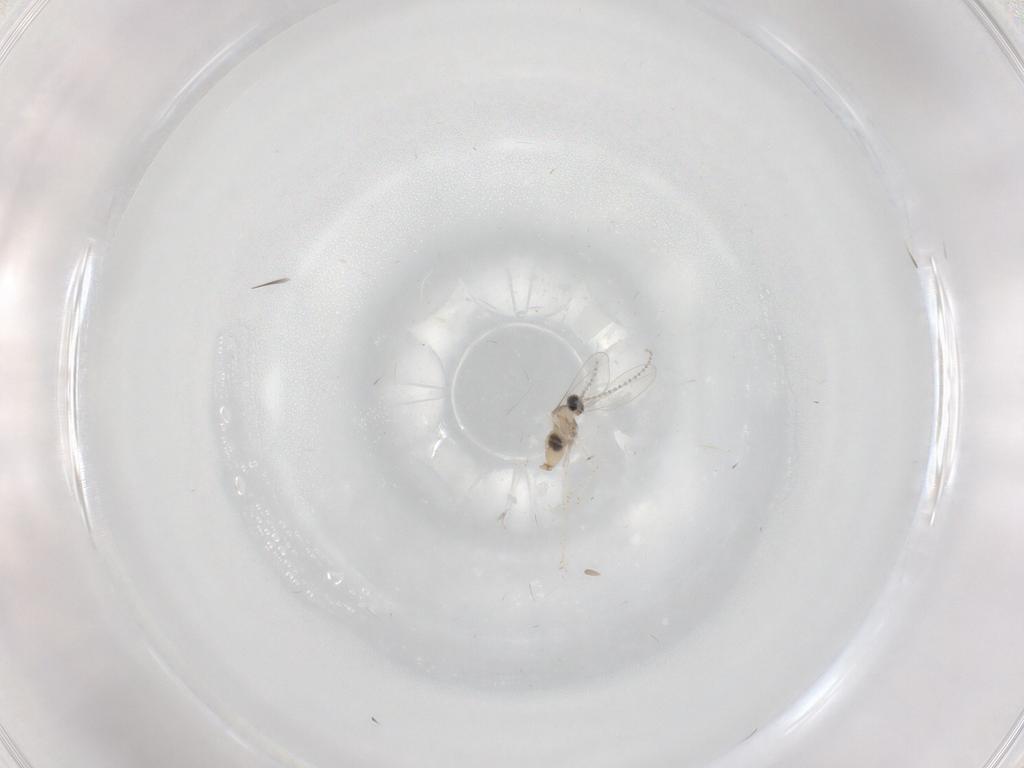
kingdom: Animalia
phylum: Arthropoda
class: Insecta
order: Diptera
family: Cecidomyiidae
